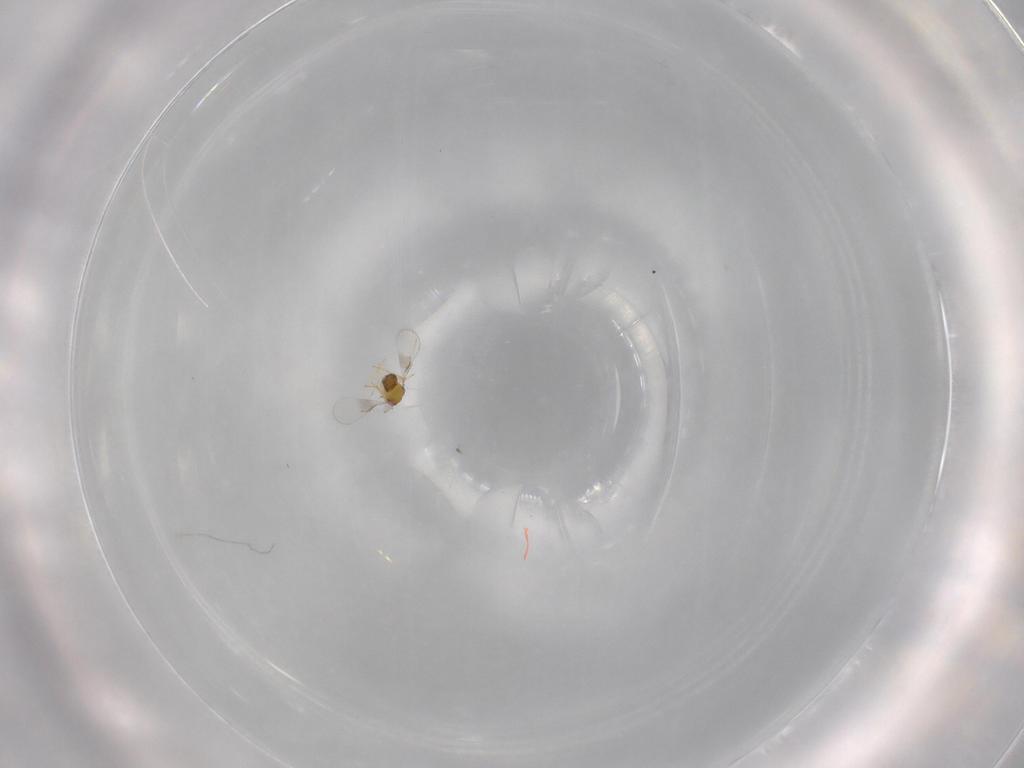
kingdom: Animalia
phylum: Arthropoda
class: Insecta
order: Hymenoptera
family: Trichogrammatidae
